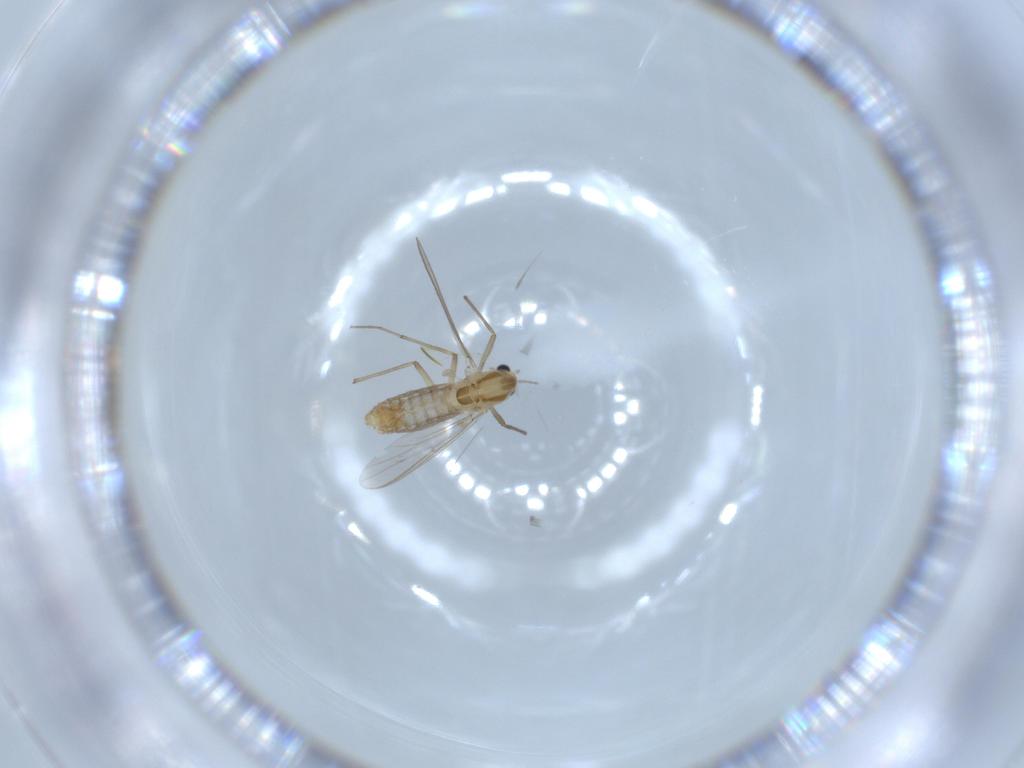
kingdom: Animalia
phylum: Arthropoda
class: Insecta
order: Diptera
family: Chironomidae
